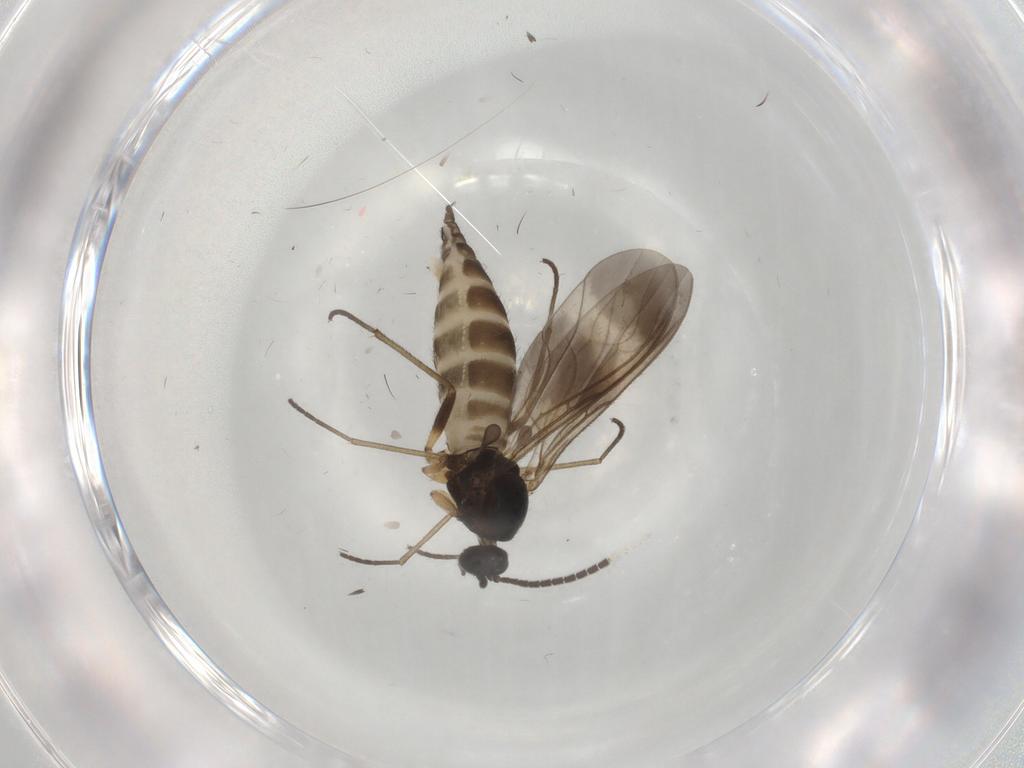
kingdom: Animalia
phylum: Arthropoda
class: Insecta
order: Diptera
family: Sciaridae
